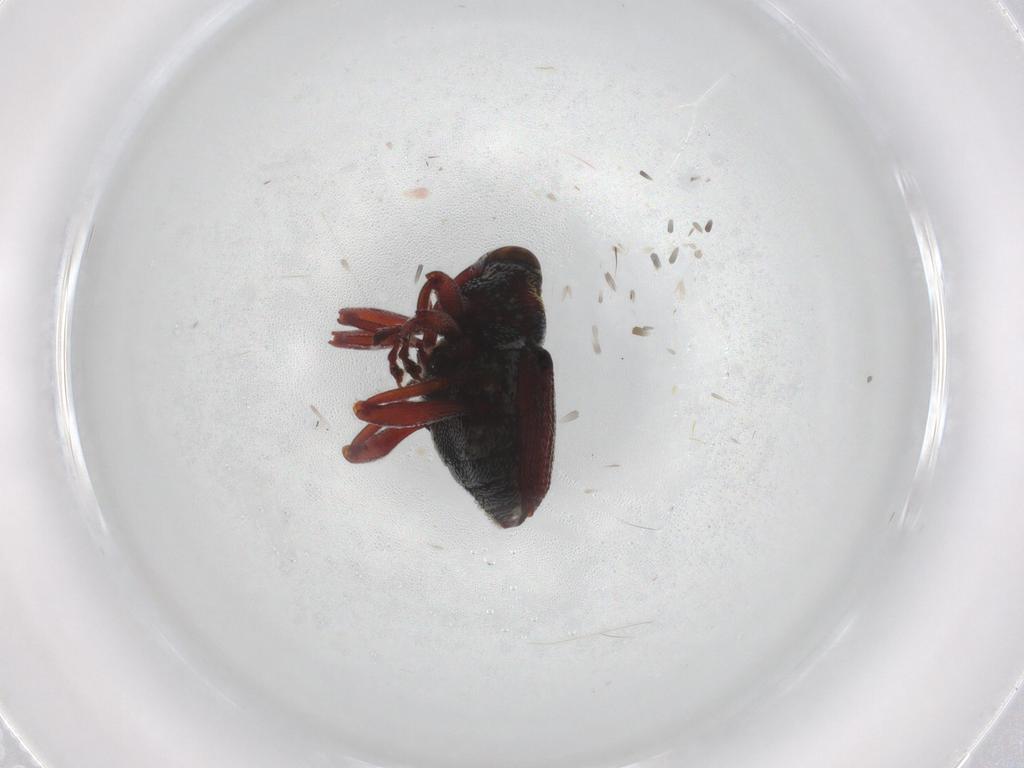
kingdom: Animalia
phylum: Arthropoda
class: Insecta
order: Coleoptera
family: Curculionidae
